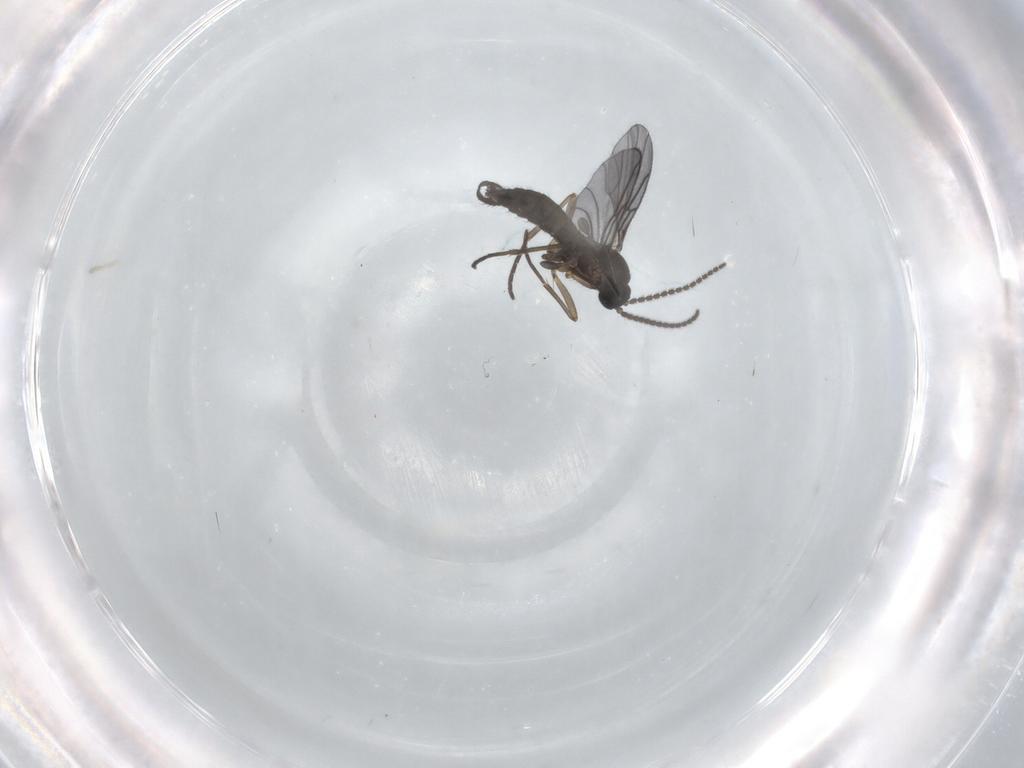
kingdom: Animalia
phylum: Arthropoda
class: Insecta
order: Diptera
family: Sciaridae
